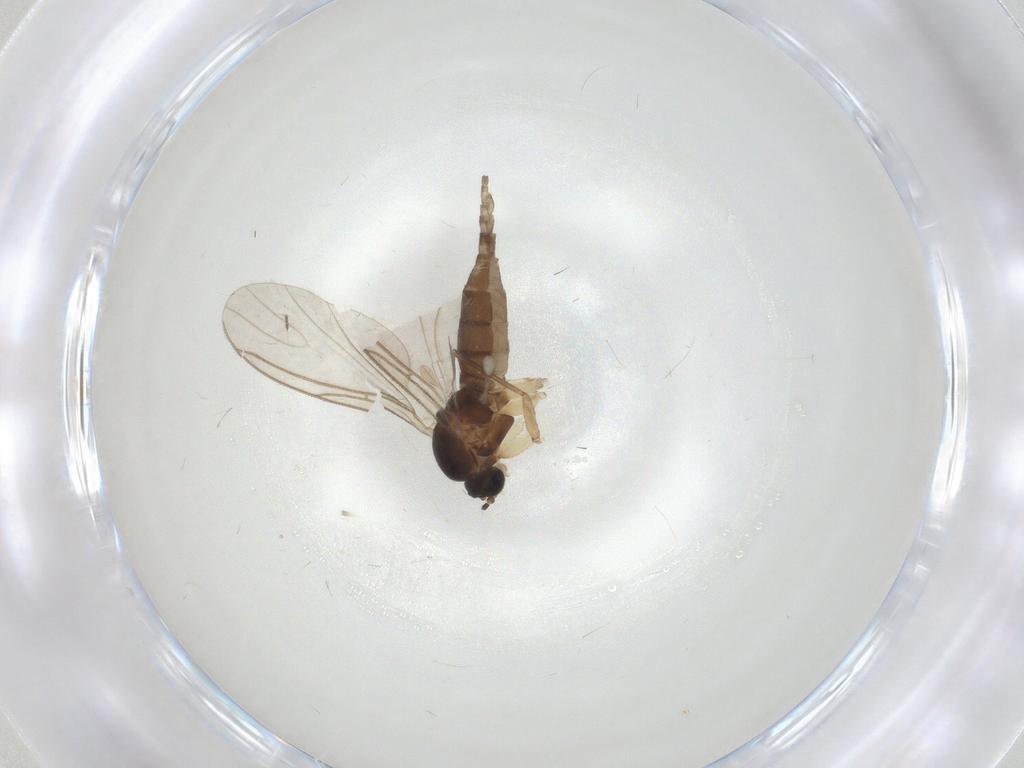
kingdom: Animalia
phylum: Arthropoda
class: Insecta
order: Diptera
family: Sciaridae
